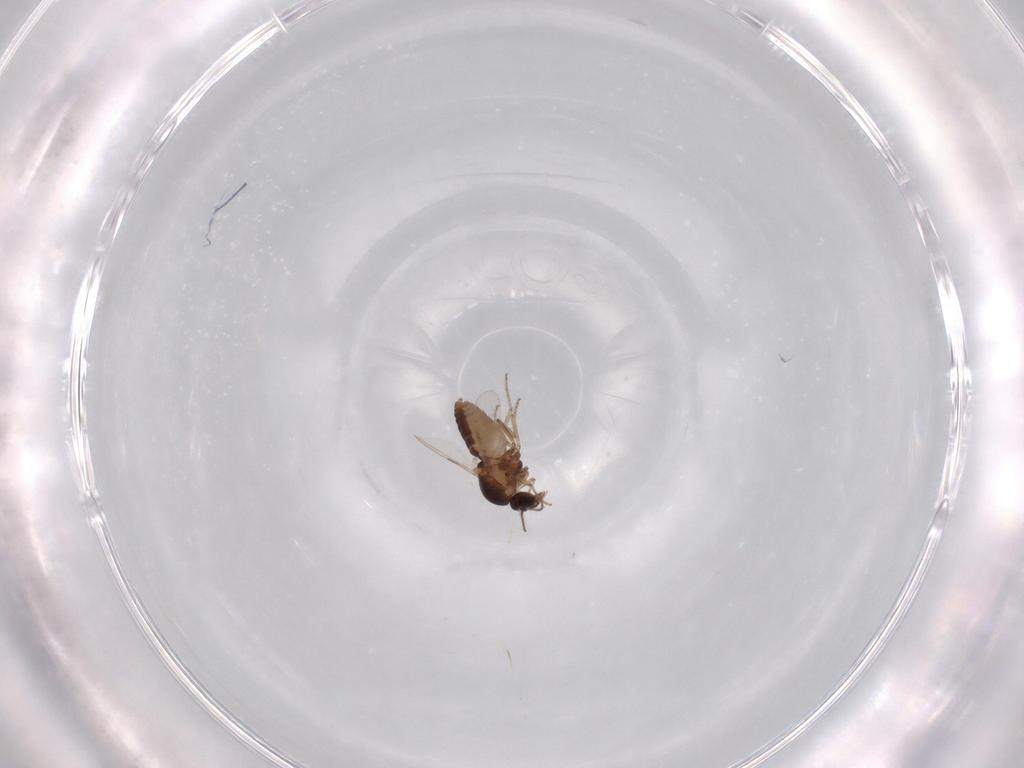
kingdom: Animalia
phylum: Arthropoda
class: Insecta
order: Diptera
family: Ceratopogonidae
